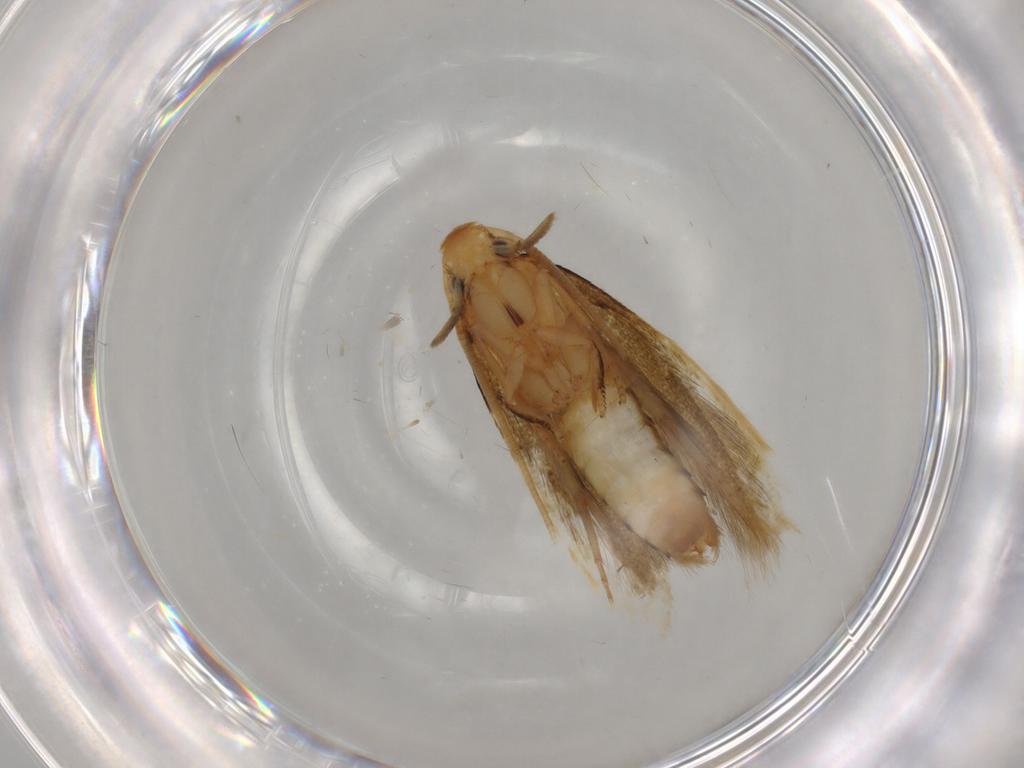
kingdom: Animalia
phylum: Arthropoda
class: Insecta
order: Lepidoptera
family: Tineidae
